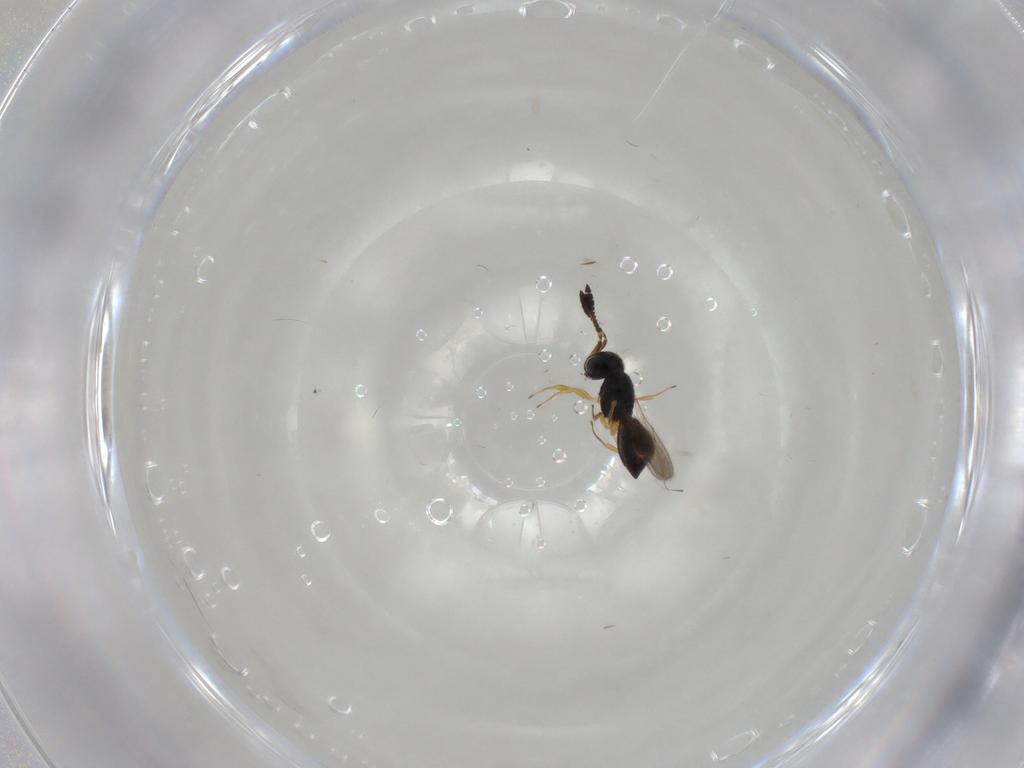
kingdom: Animalia
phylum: Arthropoda
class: Insecta
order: Hymenoptera
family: Scelionidae
